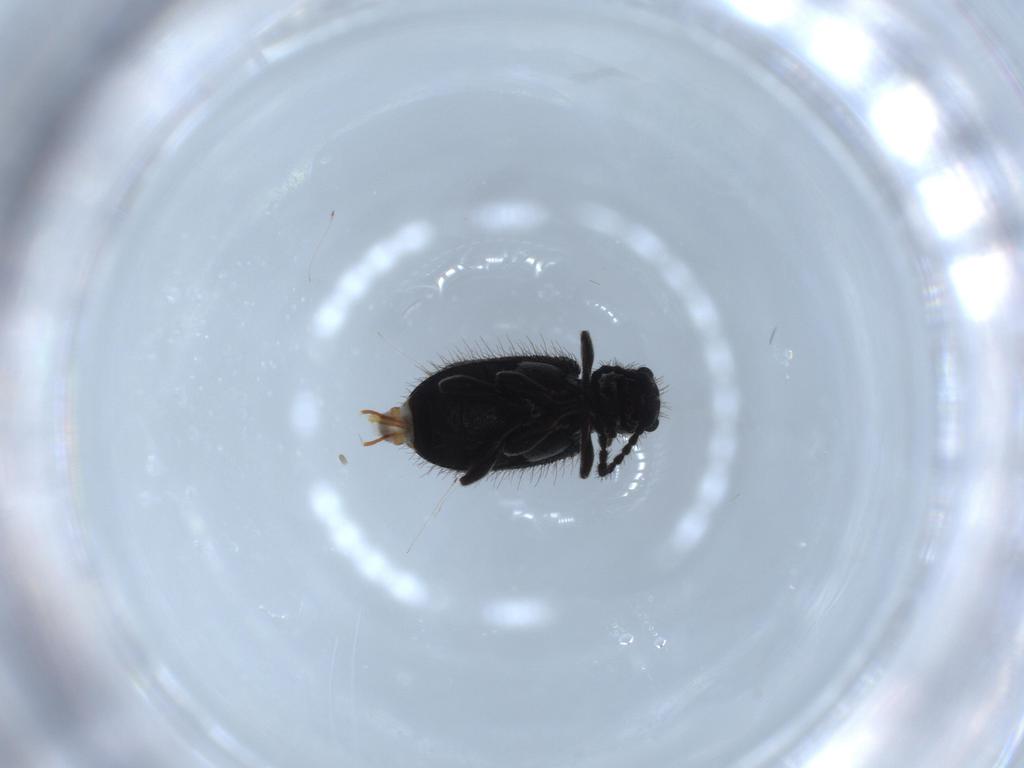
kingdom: Animalia
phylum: Arthropoda
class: Insecta
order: Coleoptera
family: Ptinidae
